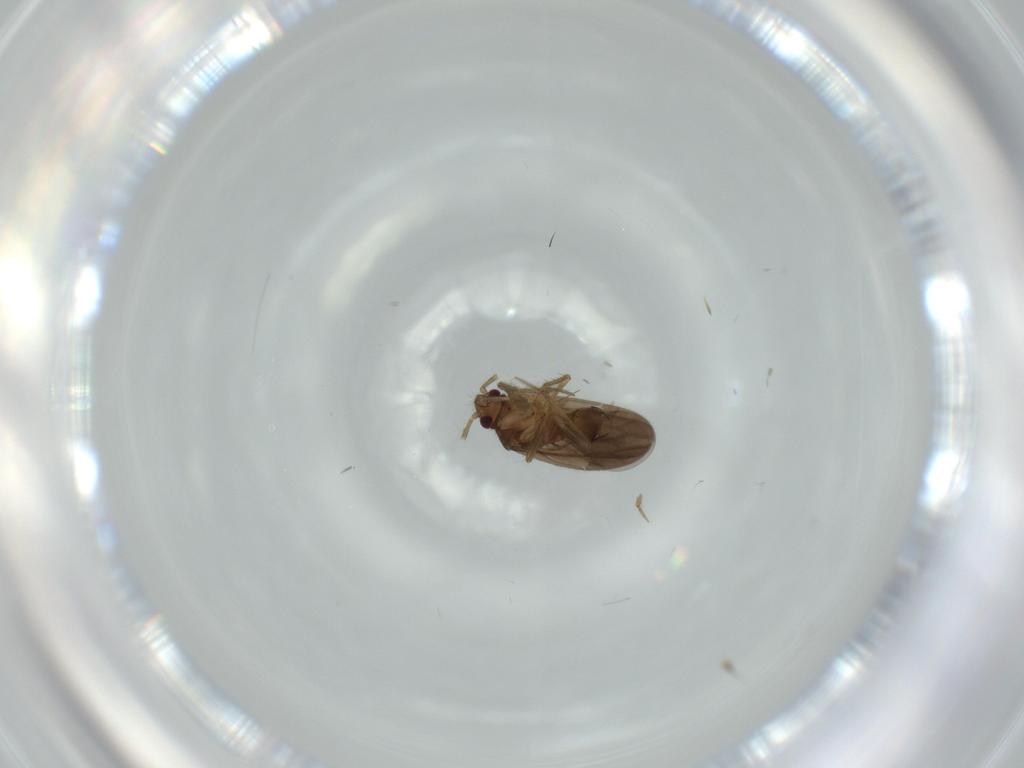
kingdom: Animalia
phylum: Arthropoda
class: Insecta
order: Hemiptera
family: Ceratocombidae
